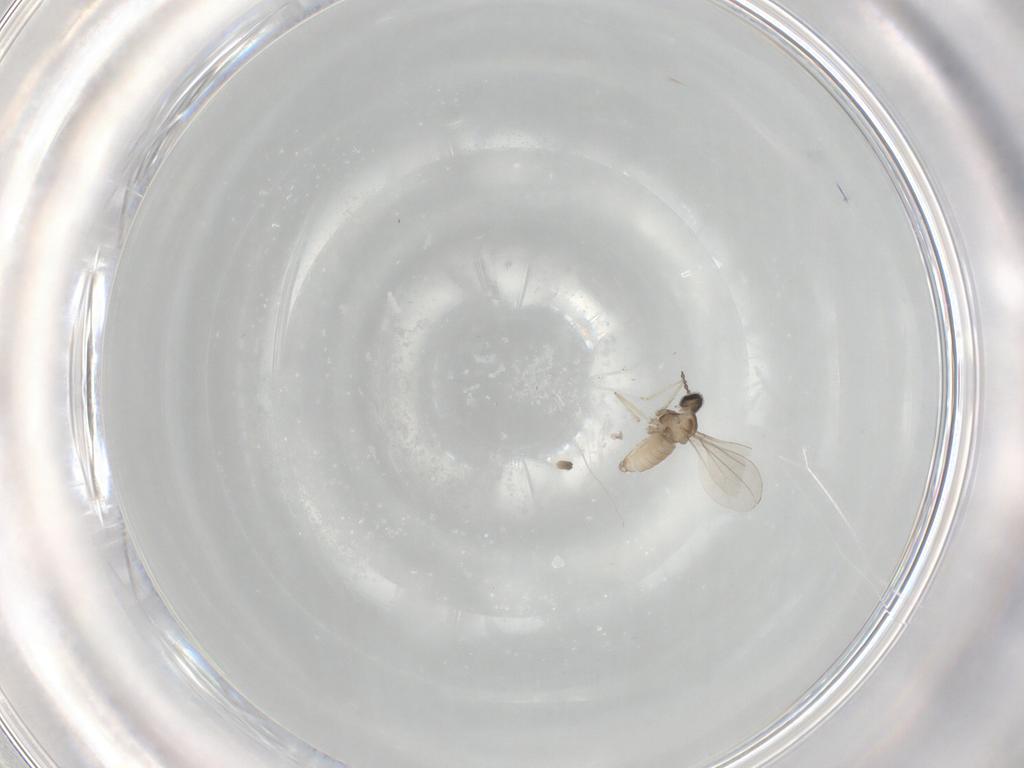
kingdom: Animalia
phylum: Arthropoda
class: Insecta
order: Diptera
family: Cecidomyiidae
